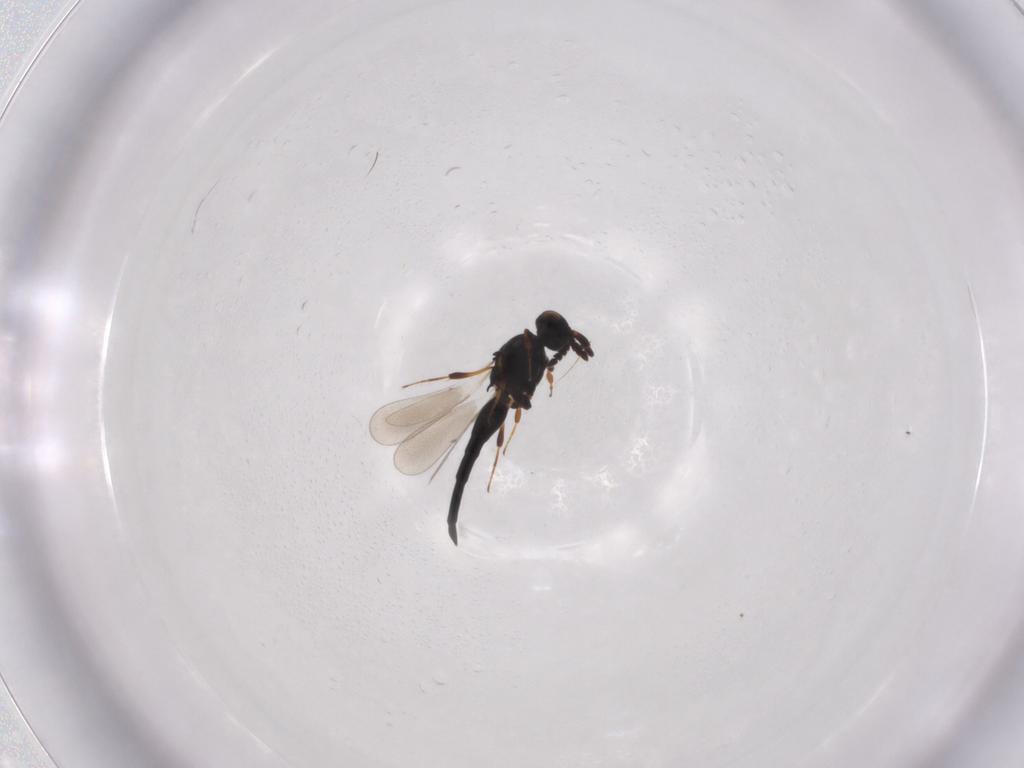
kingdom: Animalia
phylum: Arthropoda
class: Insecta
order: Hymenoptera
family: Platygastridae
